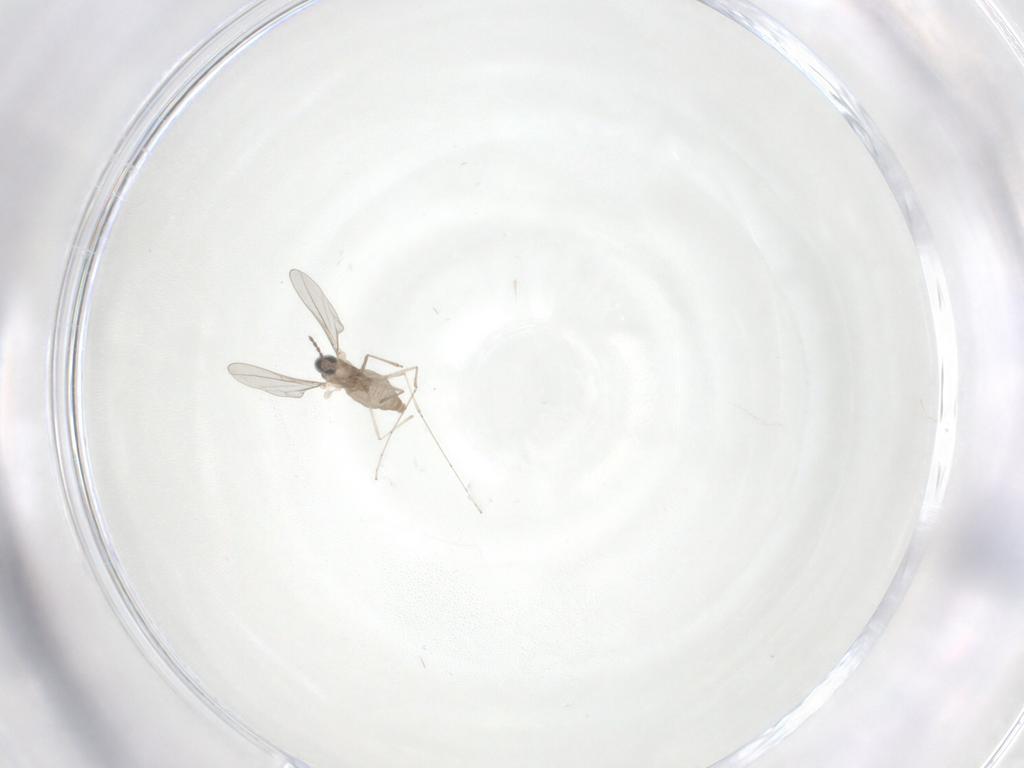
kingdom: Animalia
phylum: Arthropoda
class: Insecta
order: Diptera
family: Cecidomyiidae
